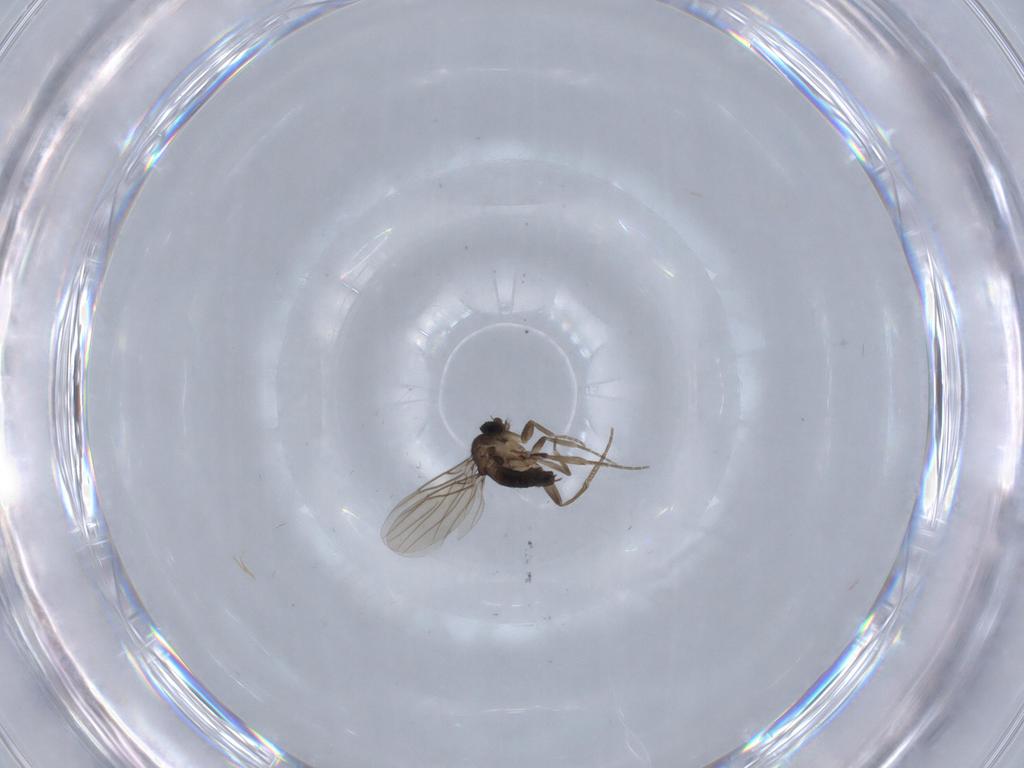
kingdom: Animalia
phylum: Arthropoda
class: Insecta
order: Diptera
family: Phoridae
